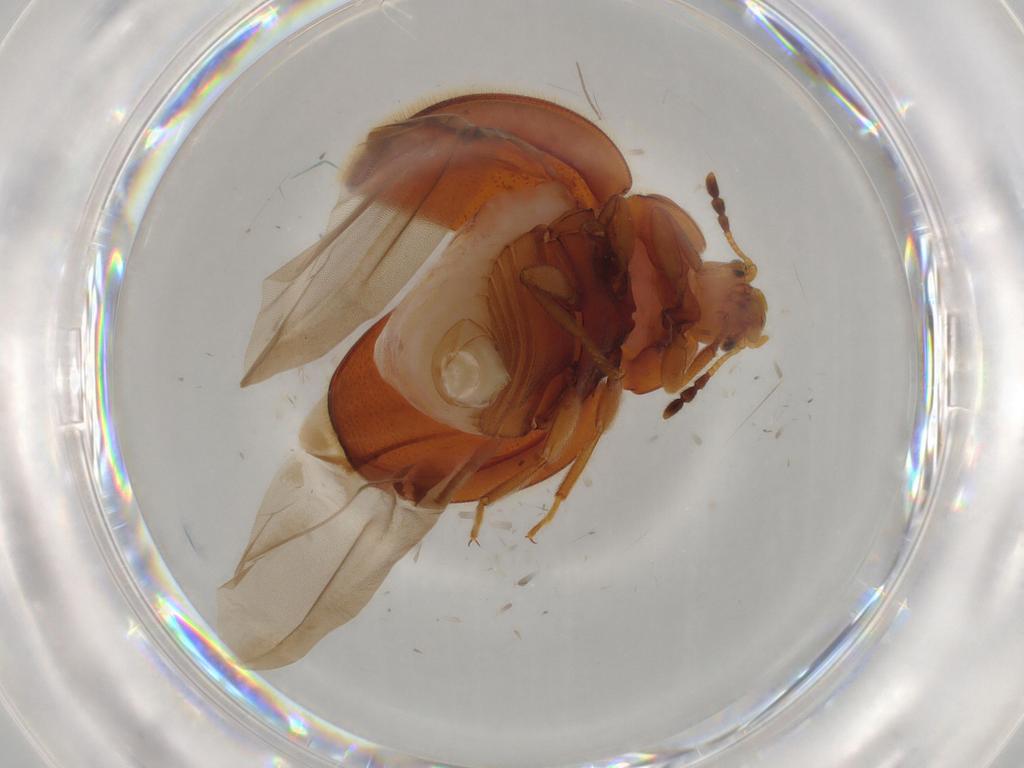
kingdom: Animalia
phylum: Arthropoda
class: Insecta
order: Coleoptera
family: Anamorphidae
